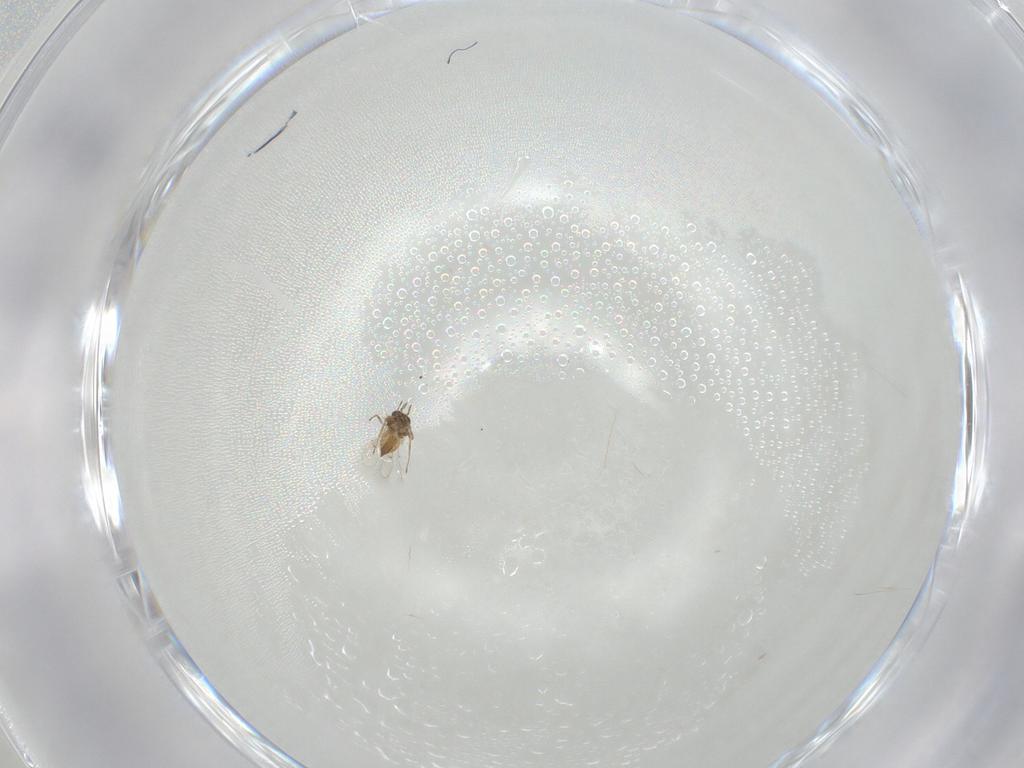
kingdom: Animalia
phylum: Arthropoda
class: Insecta
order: Hymenoptera
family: Trichogrammatidae
